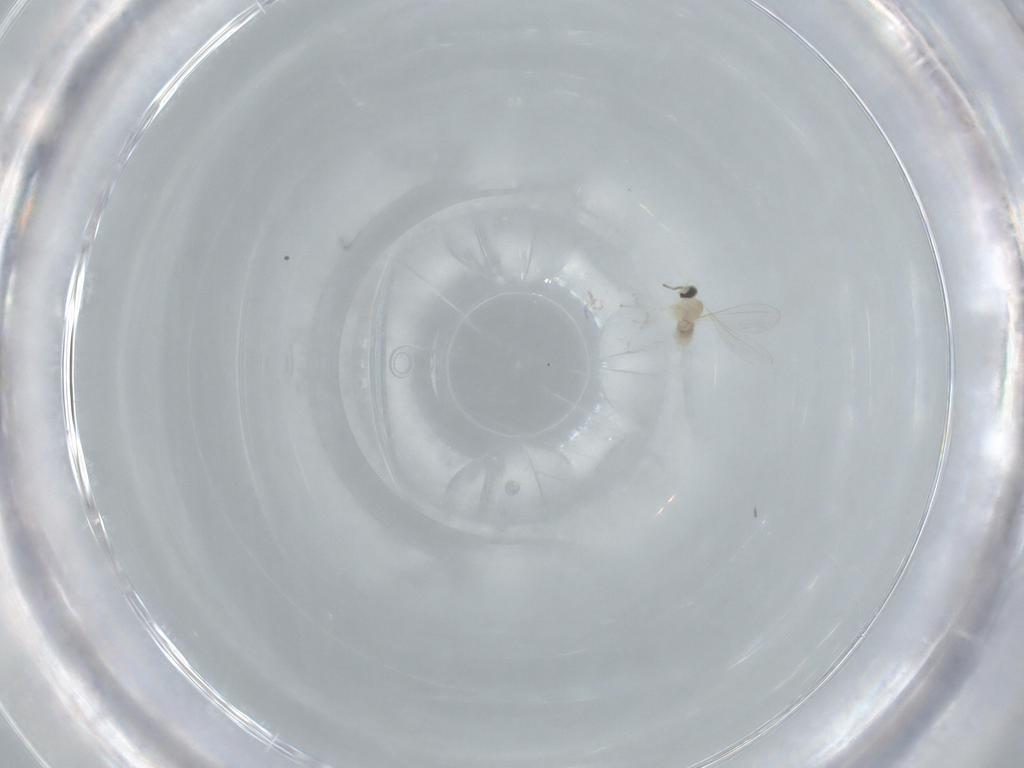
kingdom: Animalia
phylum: Arthropoda
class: Insecta
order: Diptera
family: Cecidomyiidae
